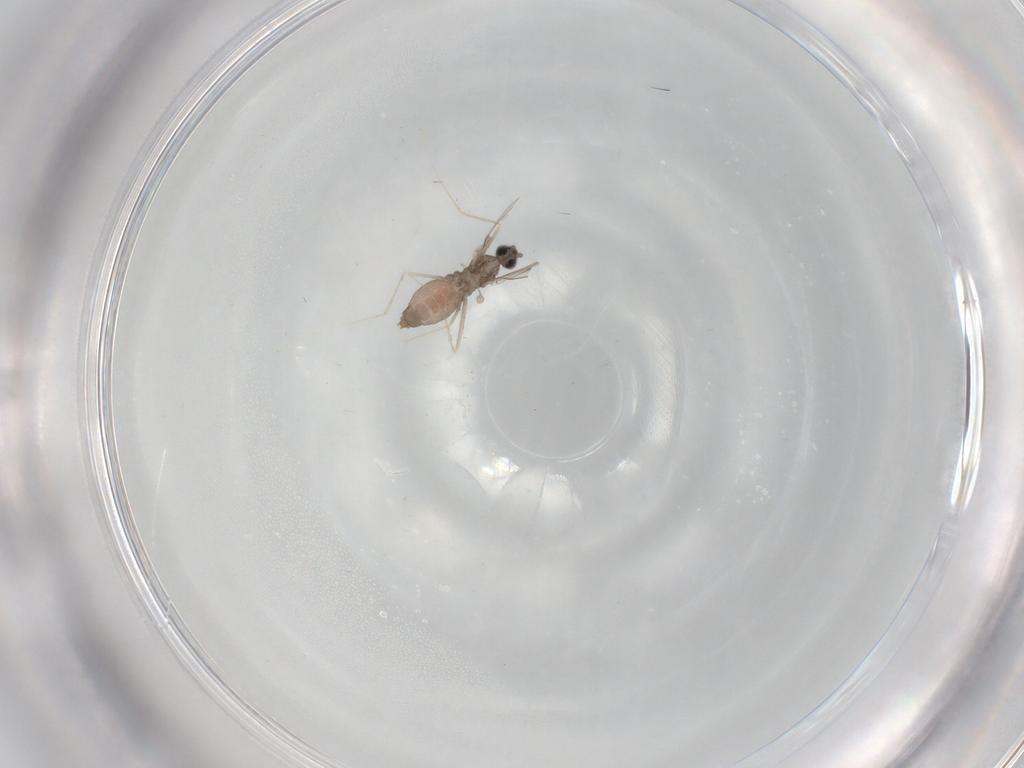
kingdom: Animalia
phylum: Arthropoda
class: Insecta
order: Diptera
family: Cecidomyiidae
